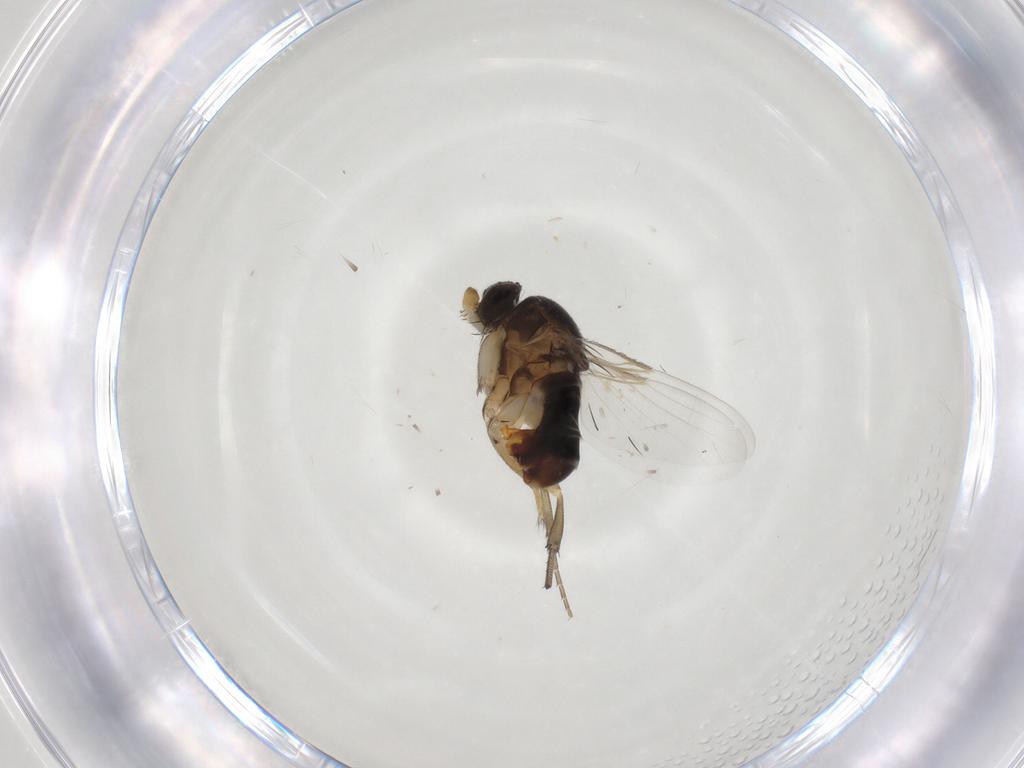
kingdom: Animalia
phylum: Arthropoda
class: Insecta
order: Diptera
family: Phoridae
